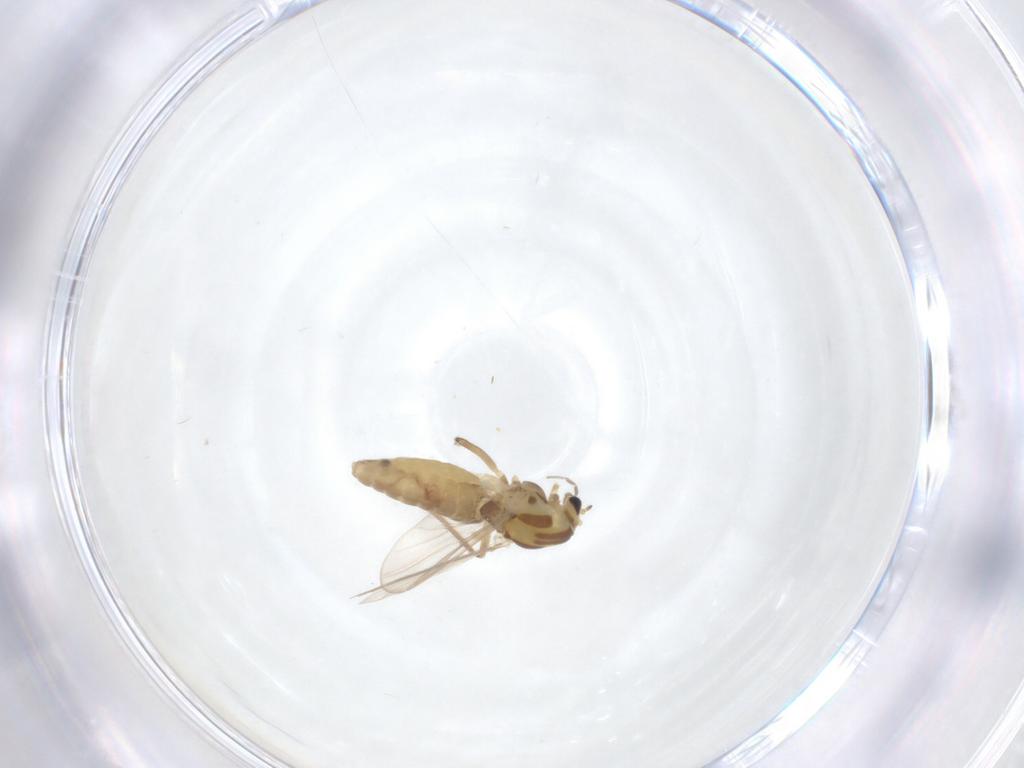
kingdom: Animalia
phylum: Arthropoda
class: Insecta
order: Diptera
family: Chironomidae
